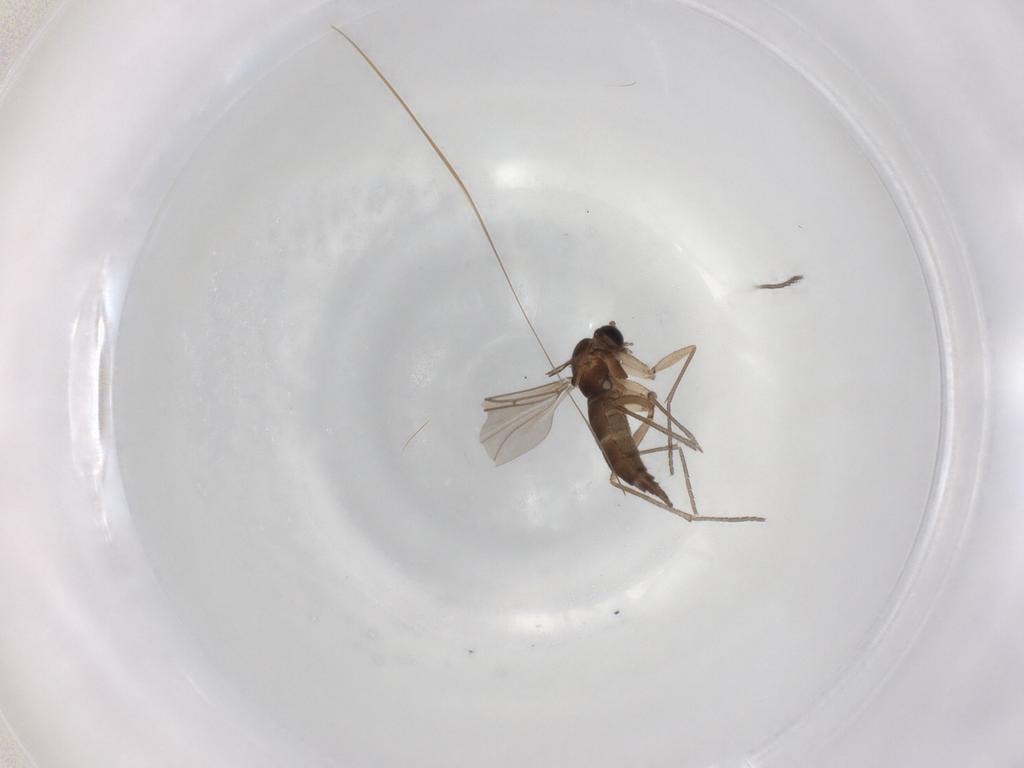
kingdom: Animalia
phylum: Arthropoda
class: Insecta
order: Diptera
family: Sciaridae
